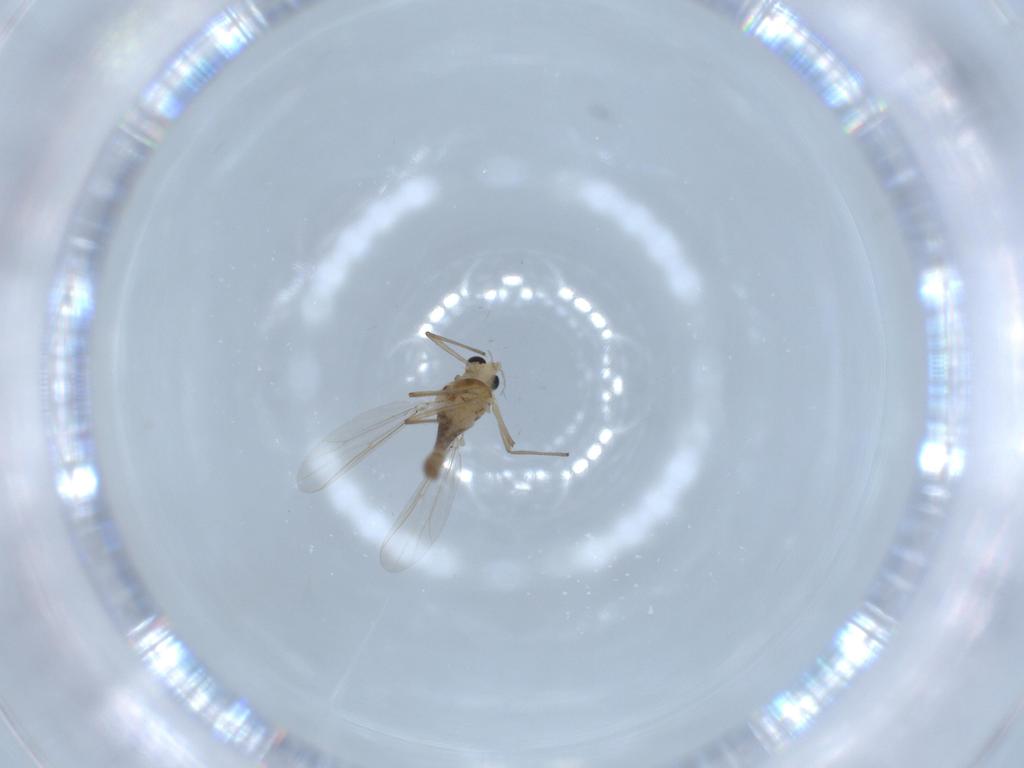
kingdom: Animalia
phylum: Arthropoda
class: Insecta
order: Diptera
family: Chironomidae
